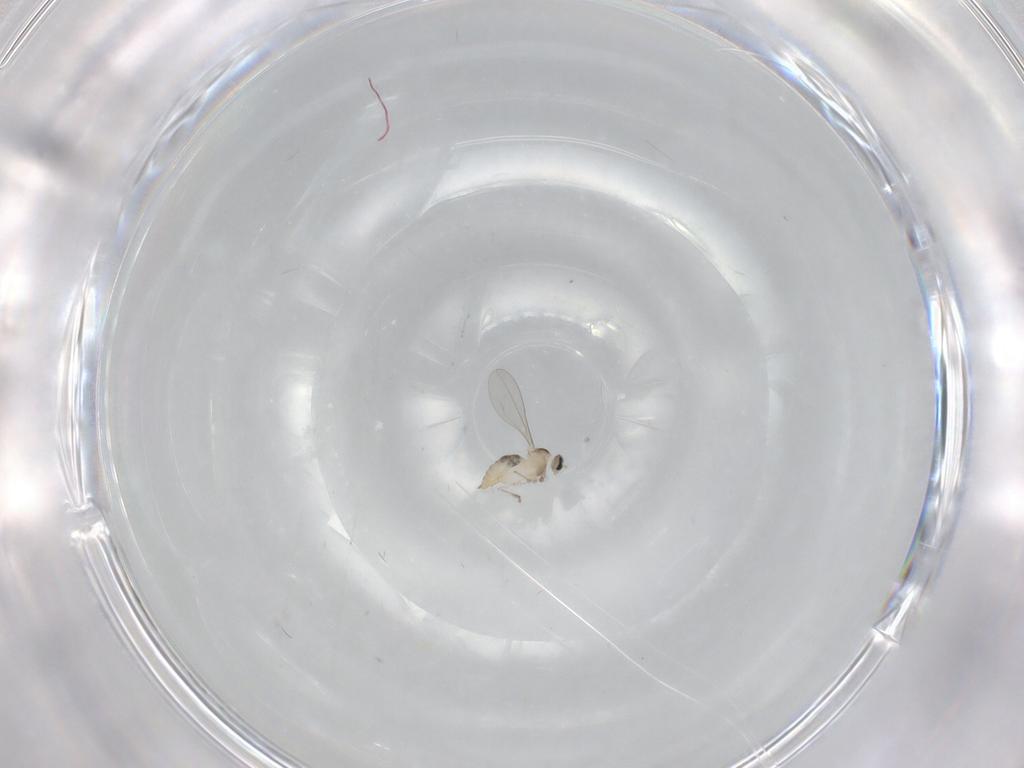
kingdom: Animalia
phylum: Arthropoda
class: Insecta
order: Diptera
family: Cecidomyiidae
